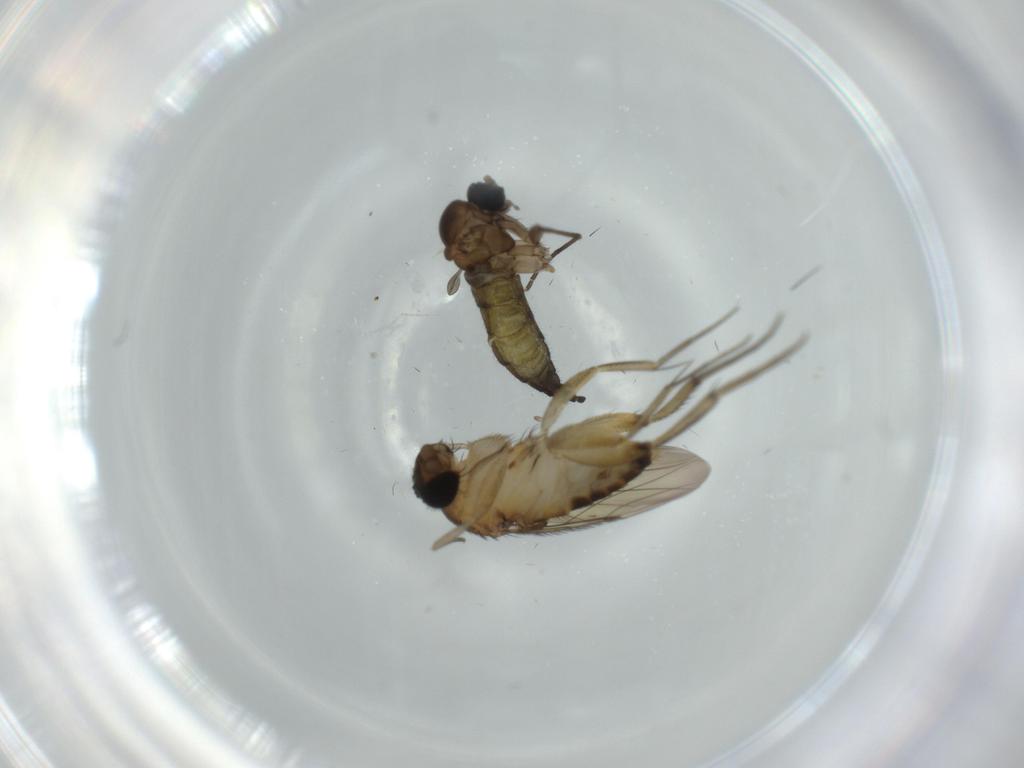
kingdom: Animalia
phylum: Arthropoda
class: Insecta
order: Diptera
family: Phoridae
